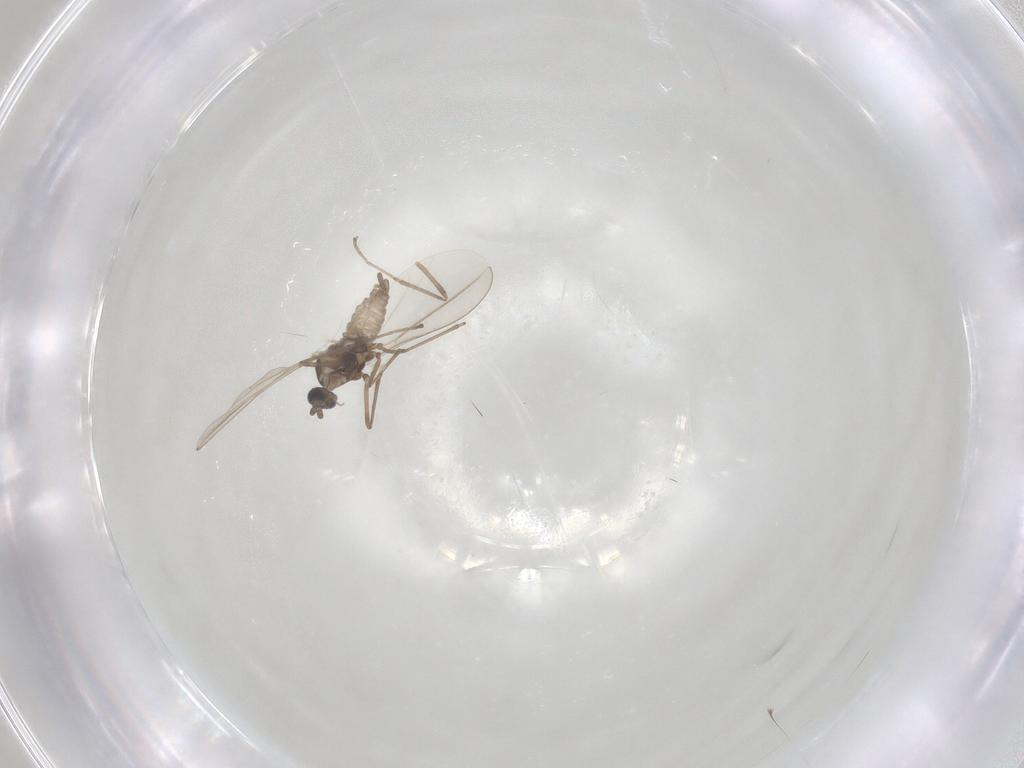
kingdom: Animalia
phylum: Arthropoda
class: Insecta
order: Diptera
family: Cecidomyiidae
